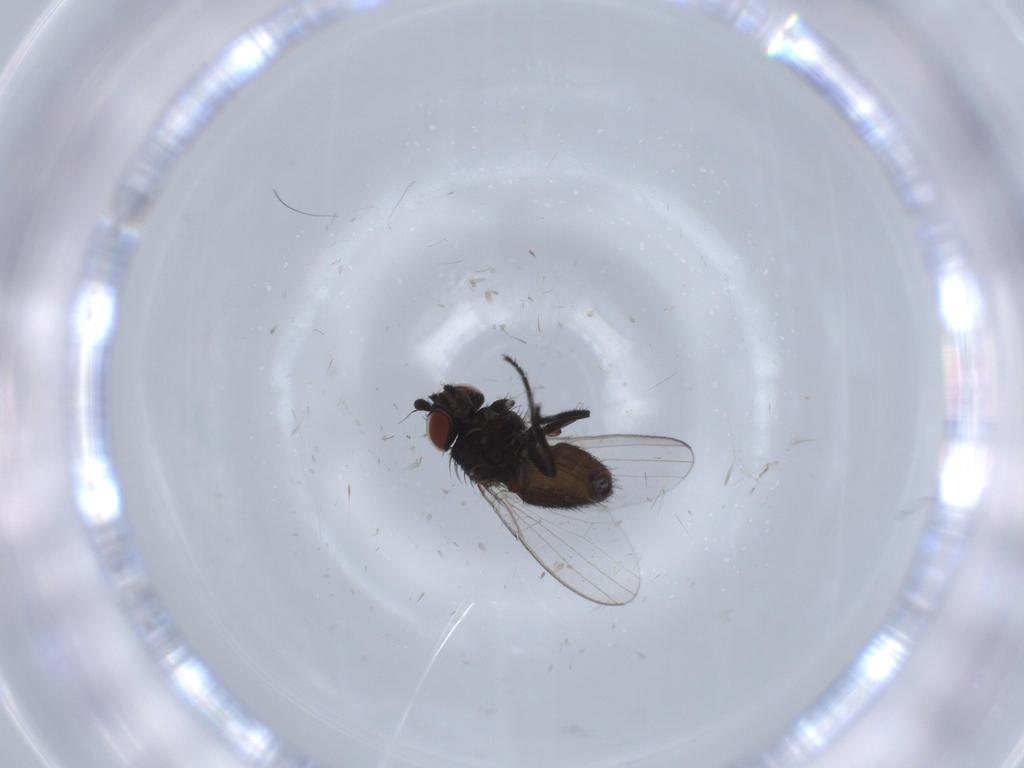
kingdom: Animalia
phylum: Arthropoda
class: Insecta
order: Diptera
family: Milichiidae
